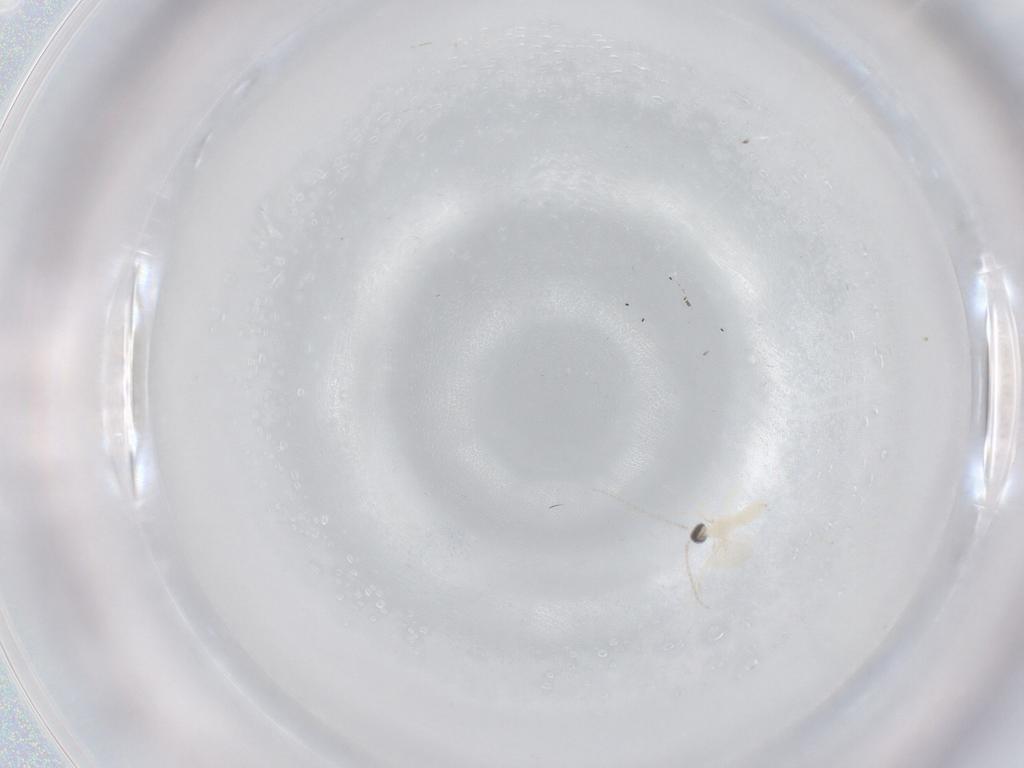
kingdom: Animalia
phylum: Arthropoda
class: Insecta
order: Diptera
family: Cecidomyiidae
